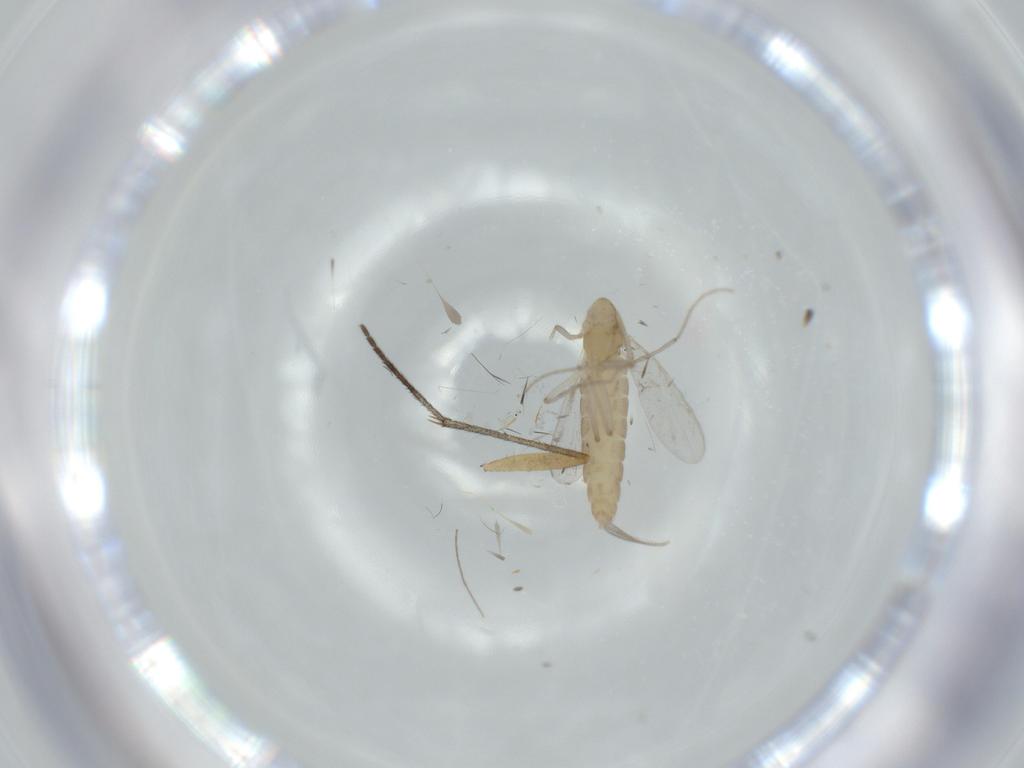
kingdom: Animalia
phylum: Arthropoda
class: Insecta
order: Diptera
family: Chironomidae
